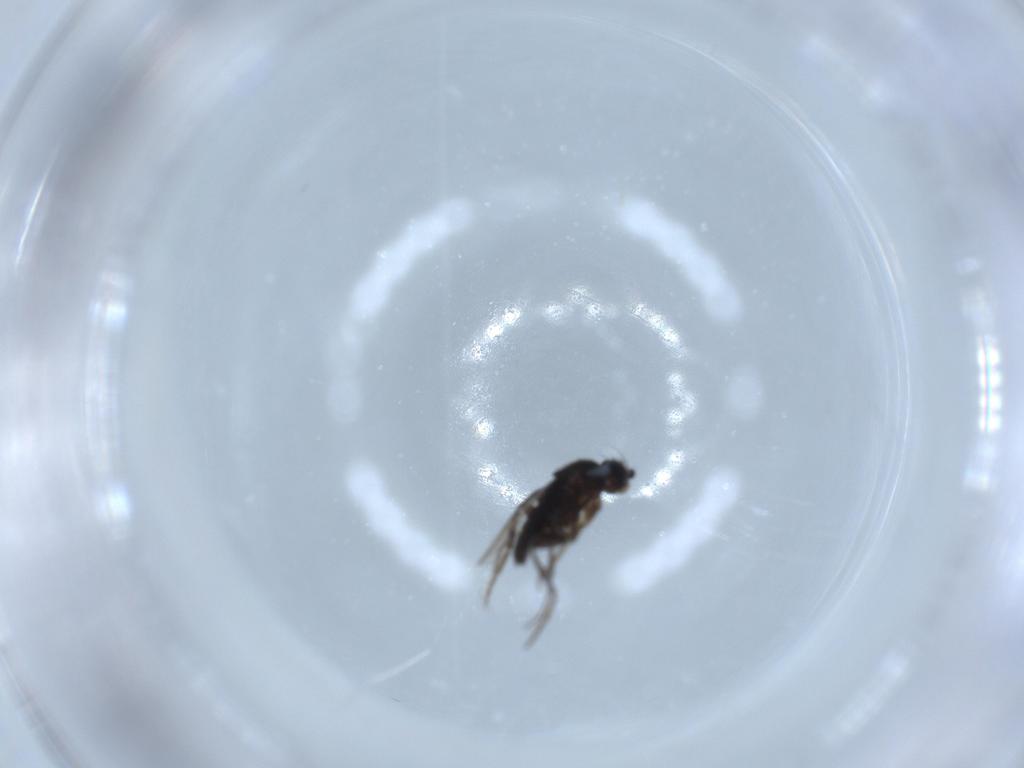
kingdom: Animalia
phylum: Arthropoda
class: Insecta
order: Diptera
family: Phoridae
